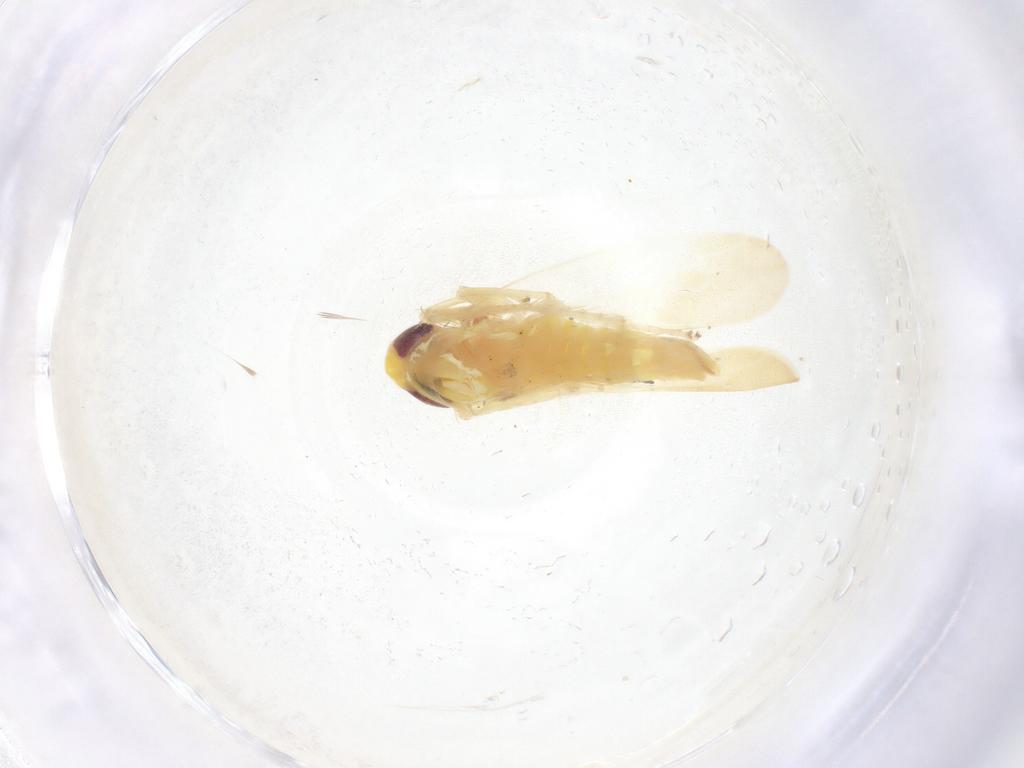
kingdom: Animalia
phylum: Arthropoda
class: Insecta
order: Hemiptera
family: Cicadellidae
